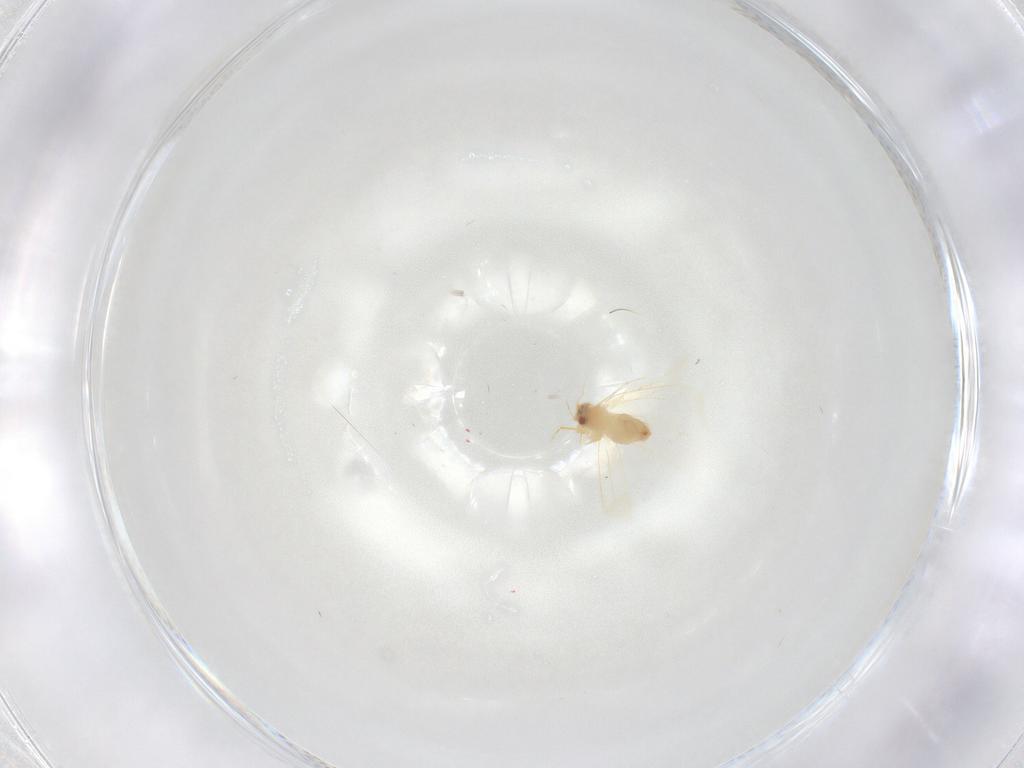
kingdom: Animalia
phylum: Arthropoda
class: Insecta
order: Hemiptera
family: Aleyrodidae
